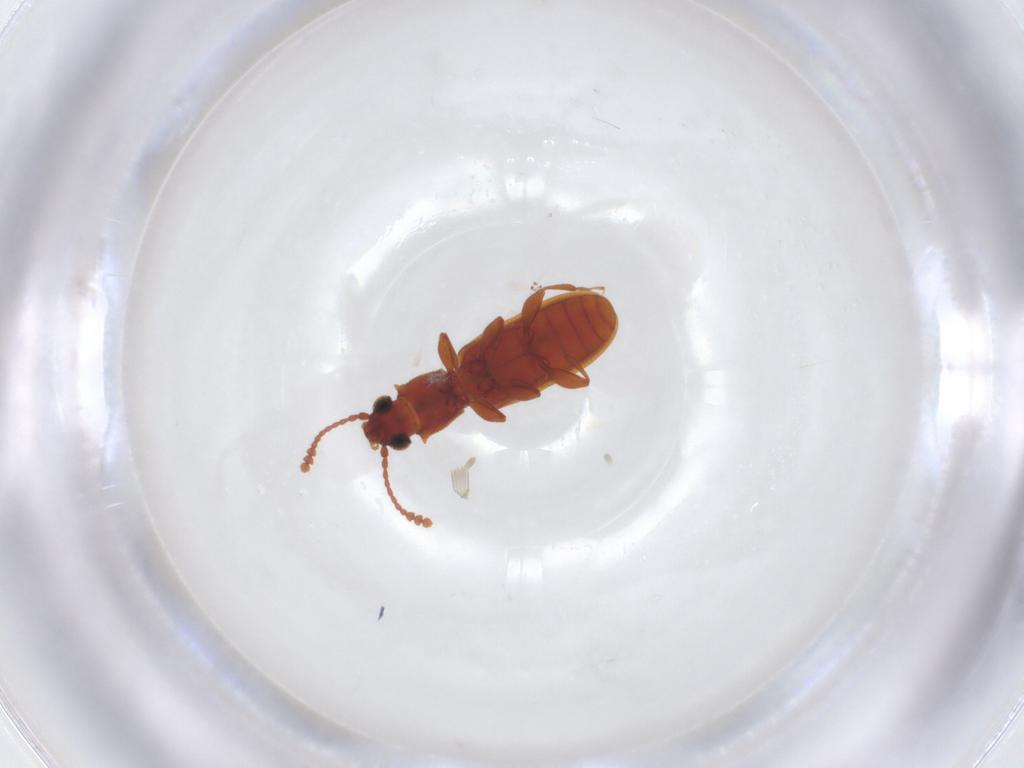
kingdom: Animalia
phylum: Arthropoda
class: Insecta
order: Coleoptera
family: Chrysomelidae
